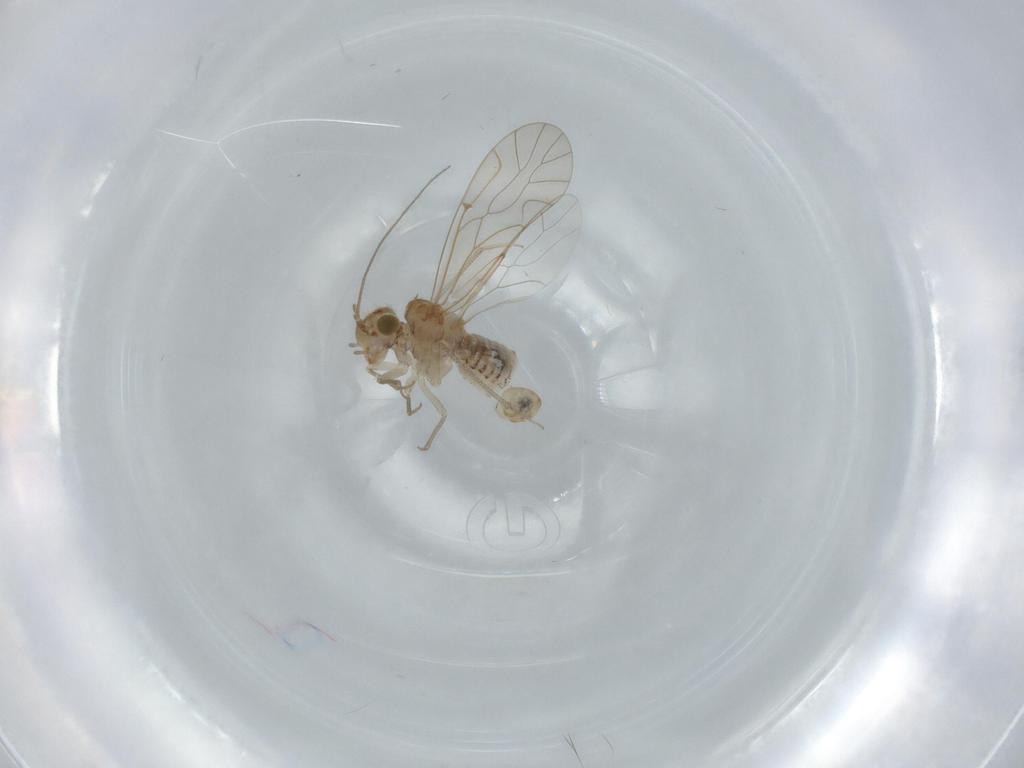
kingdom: Animalia
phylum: Arthropoda
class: Insecta
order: Psocodea
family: Lachesillidae
